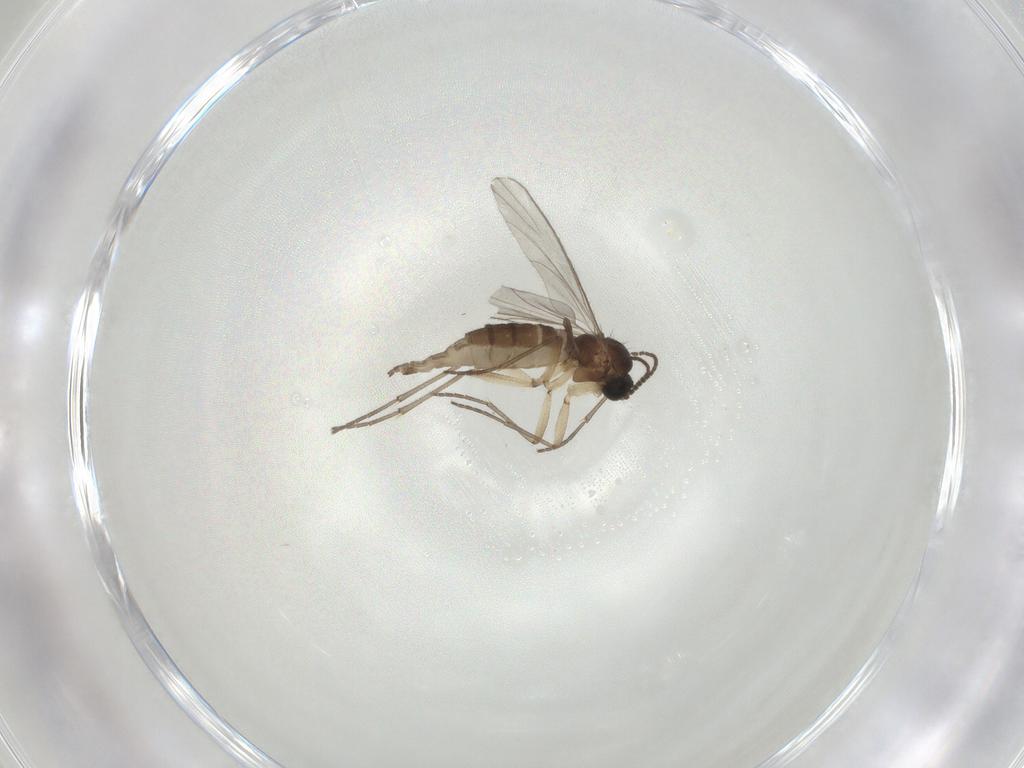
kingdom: Animalia
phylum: Arthropoda
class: Insecta
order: Diptera
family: Sciaridae
